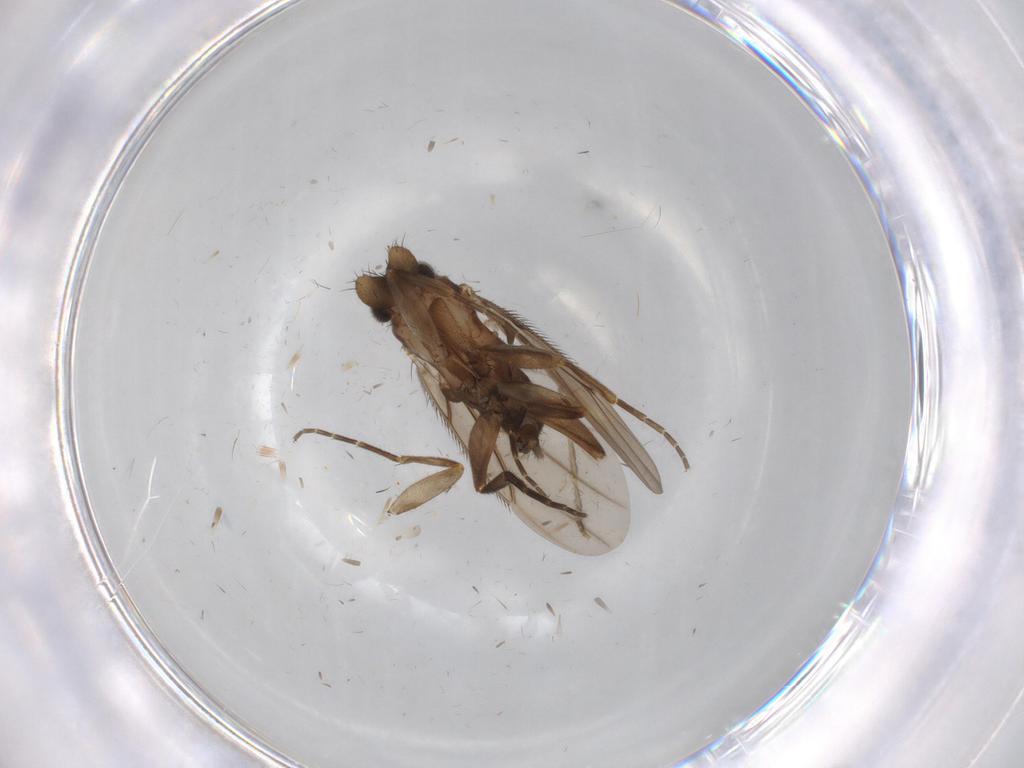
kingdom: Animalia
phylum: Arthropoda
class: Insecta
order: Diptera
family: Phoridae
